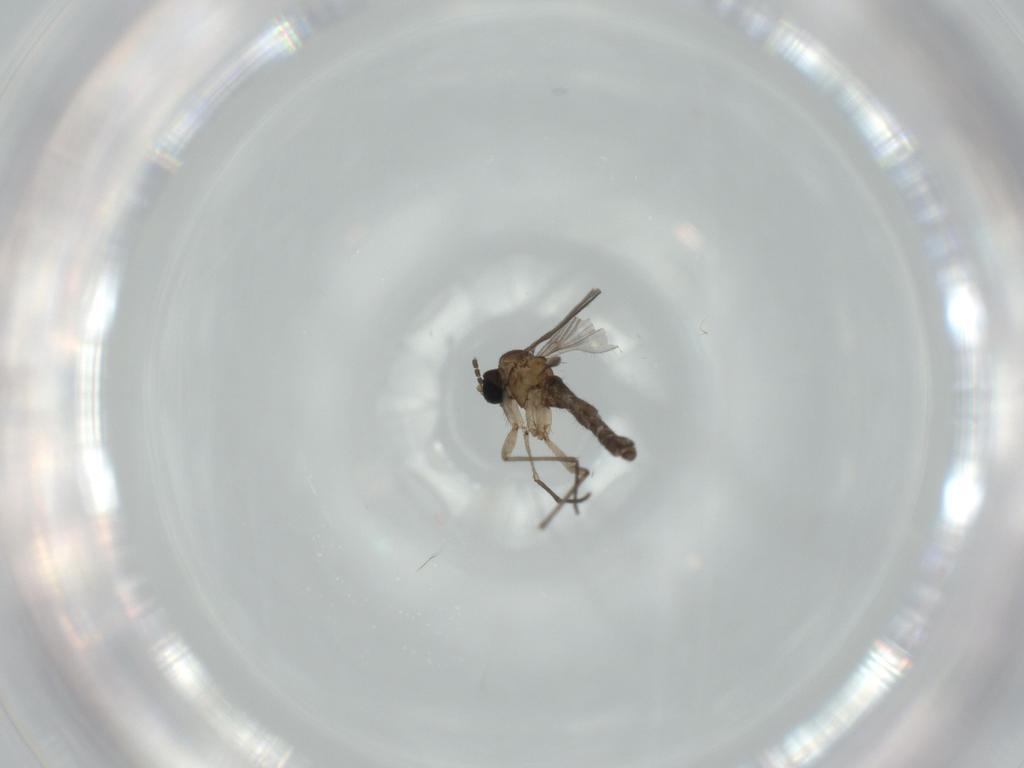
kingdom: Animalia
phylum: Arthropoda
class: Insecta
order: Diptera
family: Sciaridae
